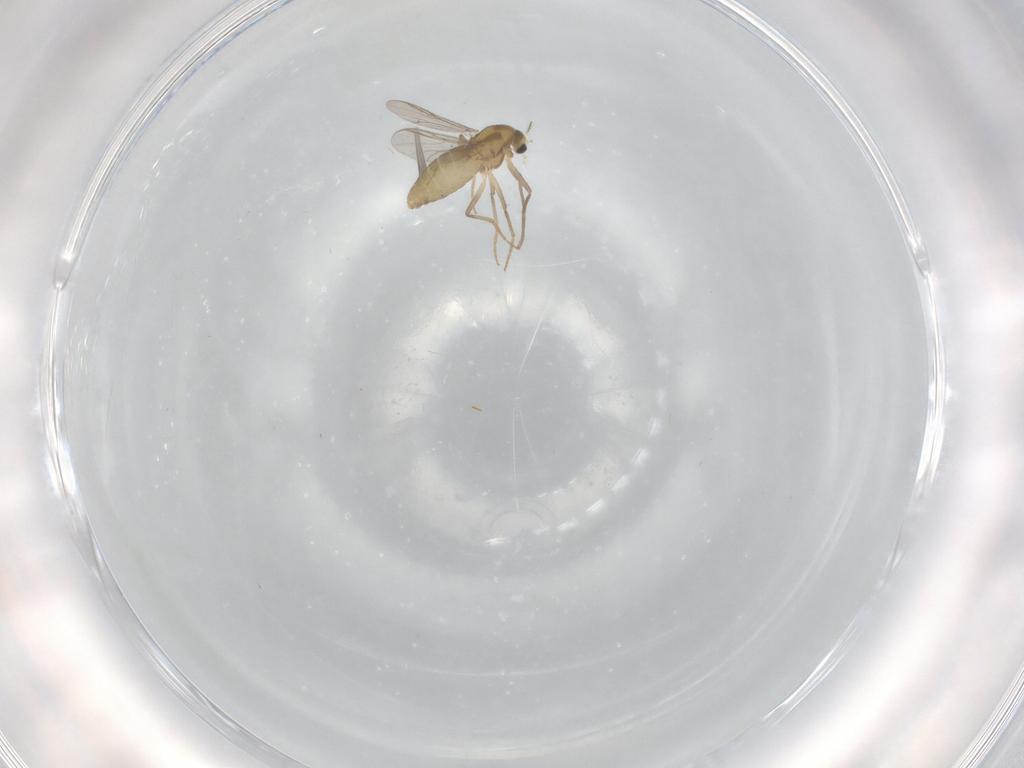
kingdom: Animalia
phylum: Arthropoda
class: Insecta
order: Diptera
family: Chironomidae
